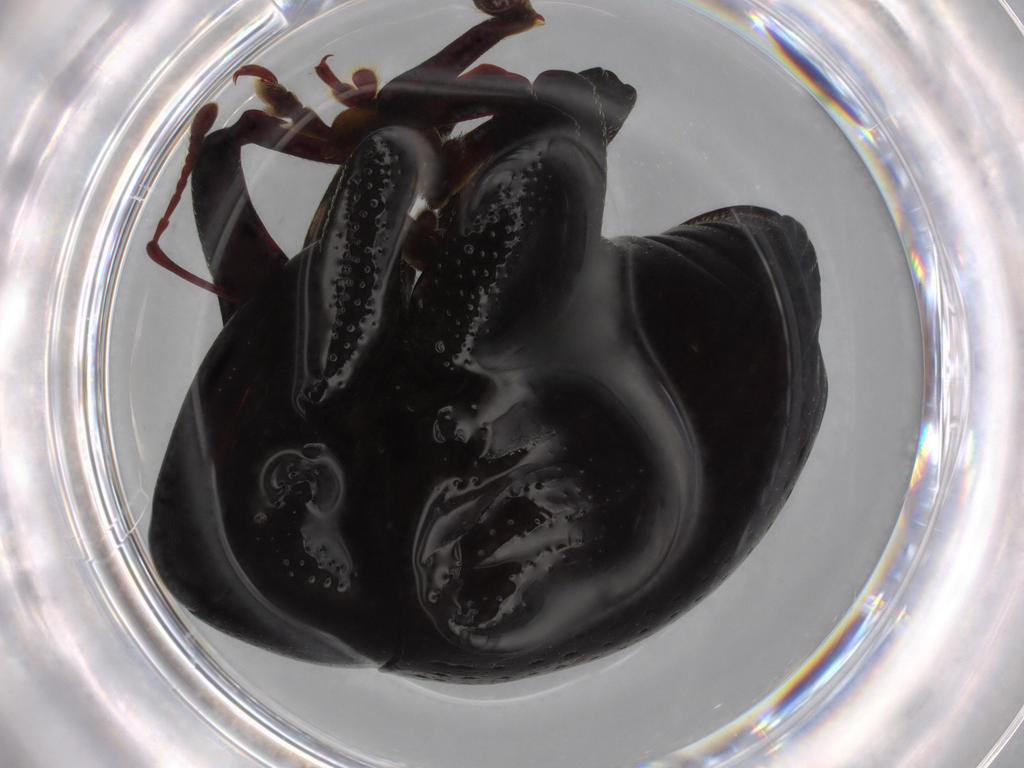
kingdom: Animalia
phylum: Arthropoda
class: Insecta
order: Coleoptera
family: Chrysomelidae
